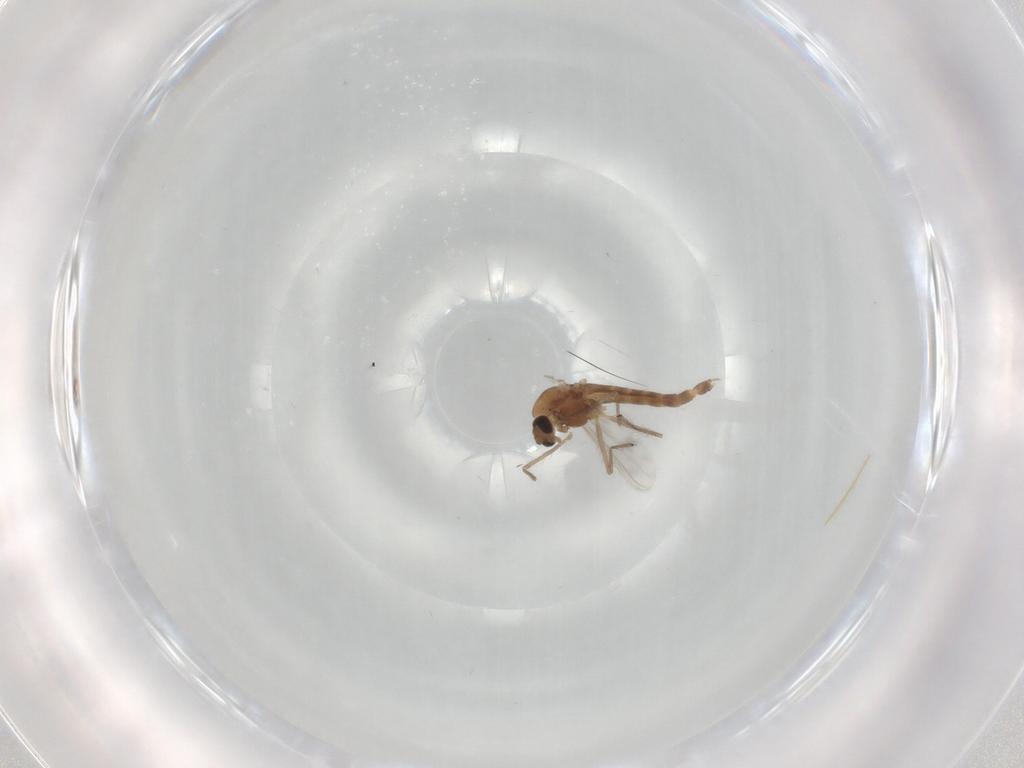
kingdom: Animalia
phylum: Arthropoda
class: Insecta
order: Diptera
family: Chironomidae
